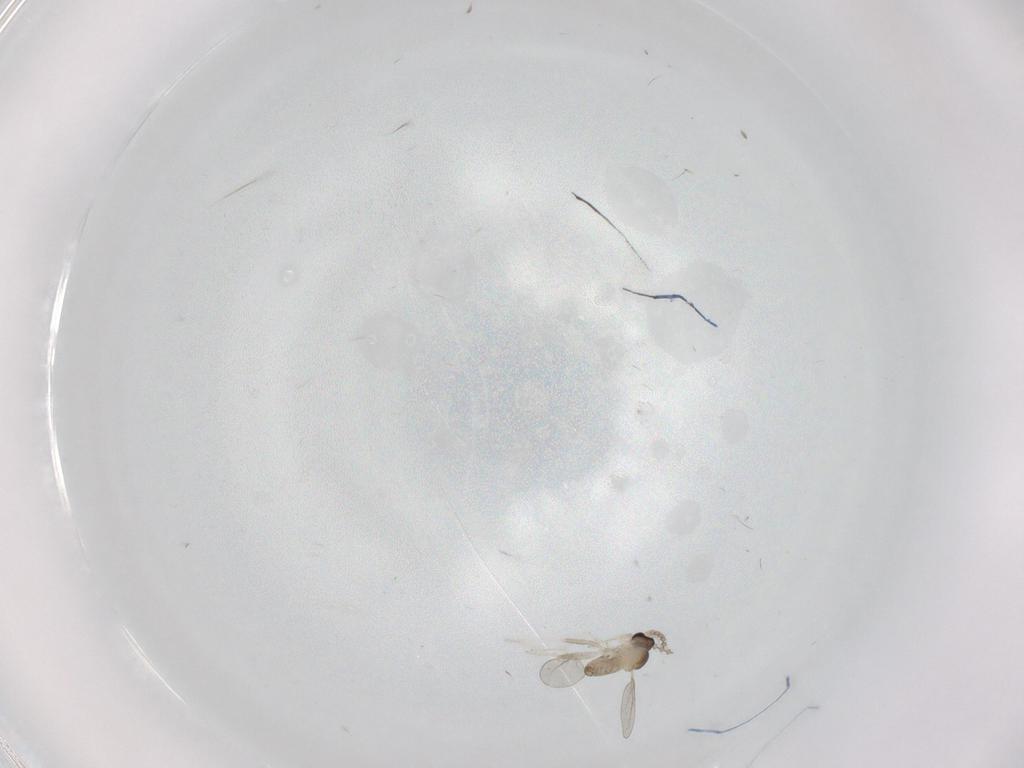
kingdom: Animalia
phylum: Arthropoda
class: Insecta
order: Diptera
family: Cecidomyiidae
